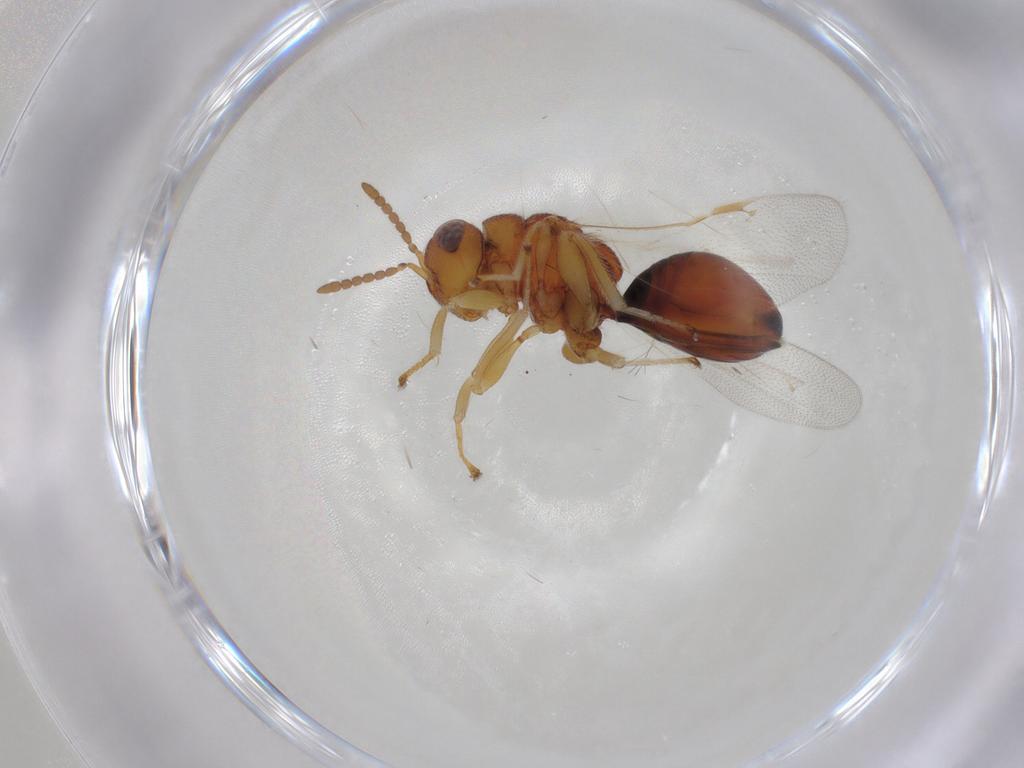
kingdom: Animalia
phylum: Arthropoda
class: Insecta
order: Hymenoptera
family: Eurytomidae
